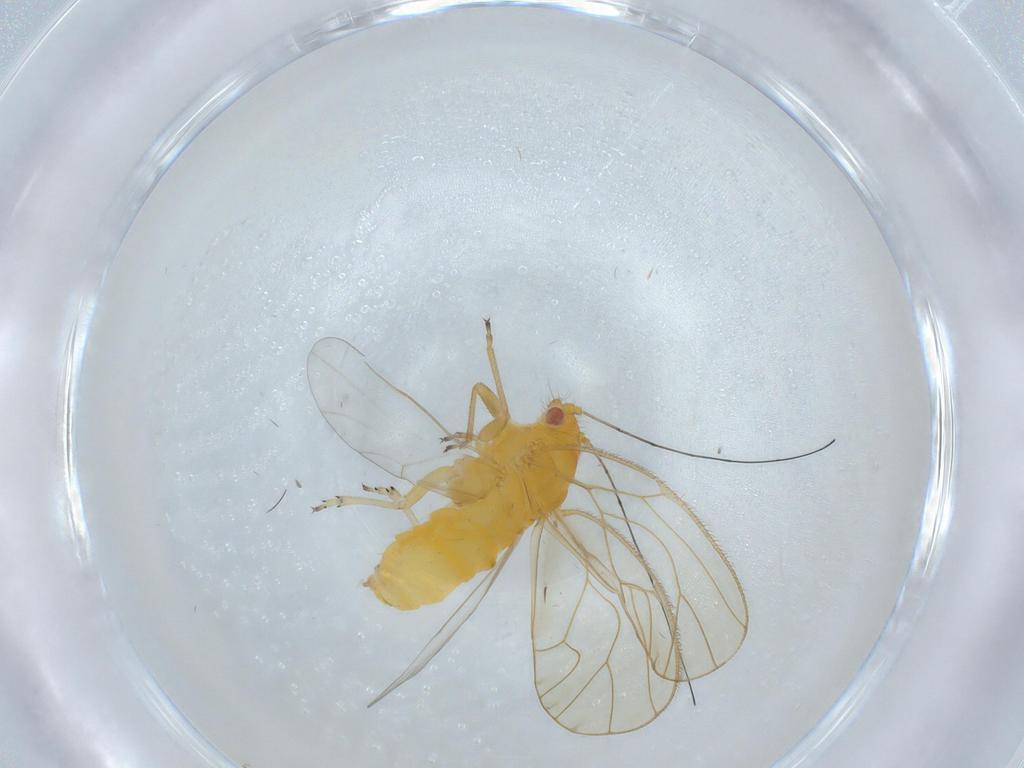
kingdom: Animalia
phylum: Arthropoda
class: Insecta
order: Hemiptera
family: Psyllidae
